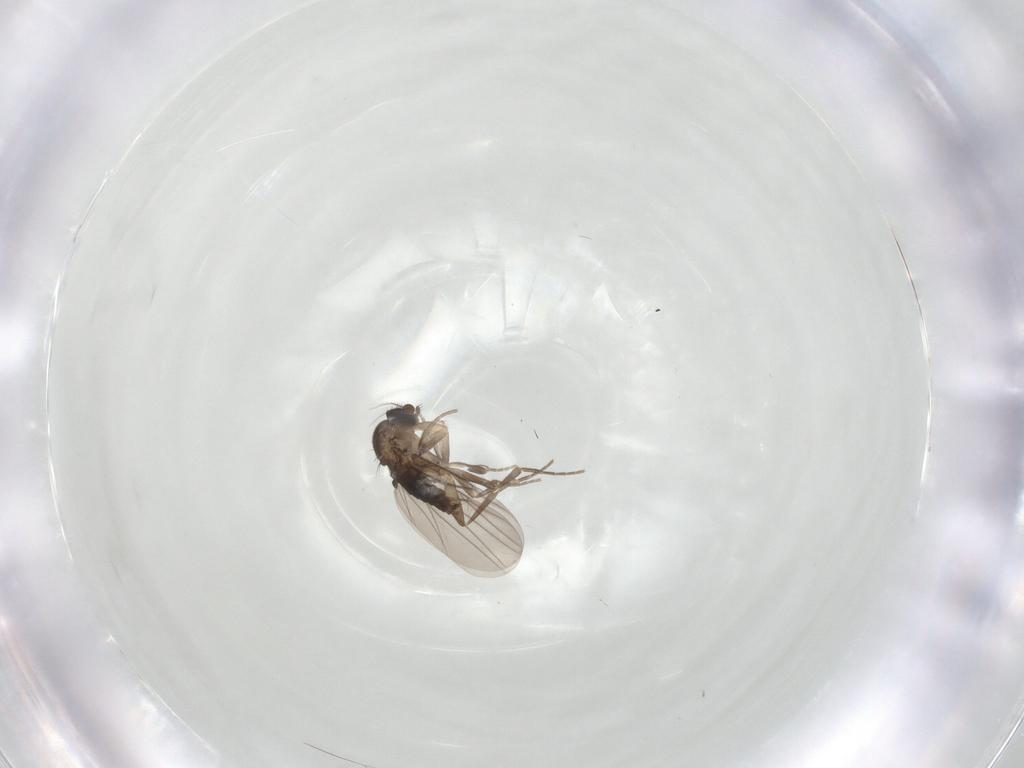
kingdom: Animalia
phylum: Arthropoda
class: Insecta
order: Diptera
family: Phoridae
